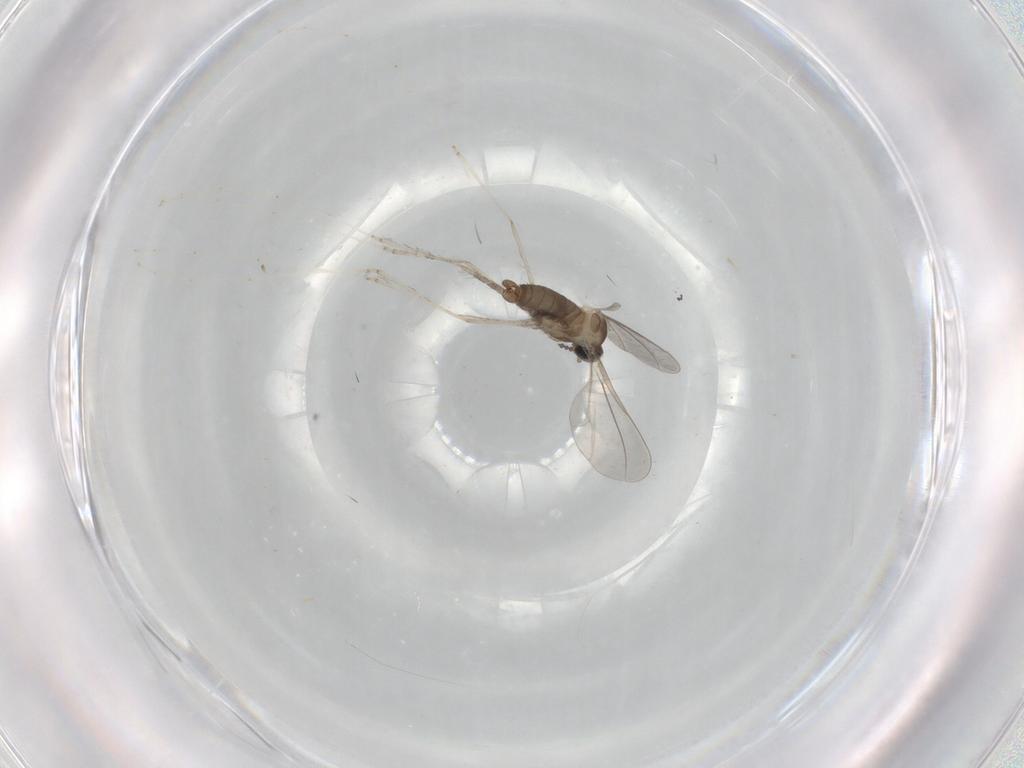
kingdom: Animalia
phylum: Arthropoda
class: Insecta
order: Diptera
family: Cecidomyiidae
